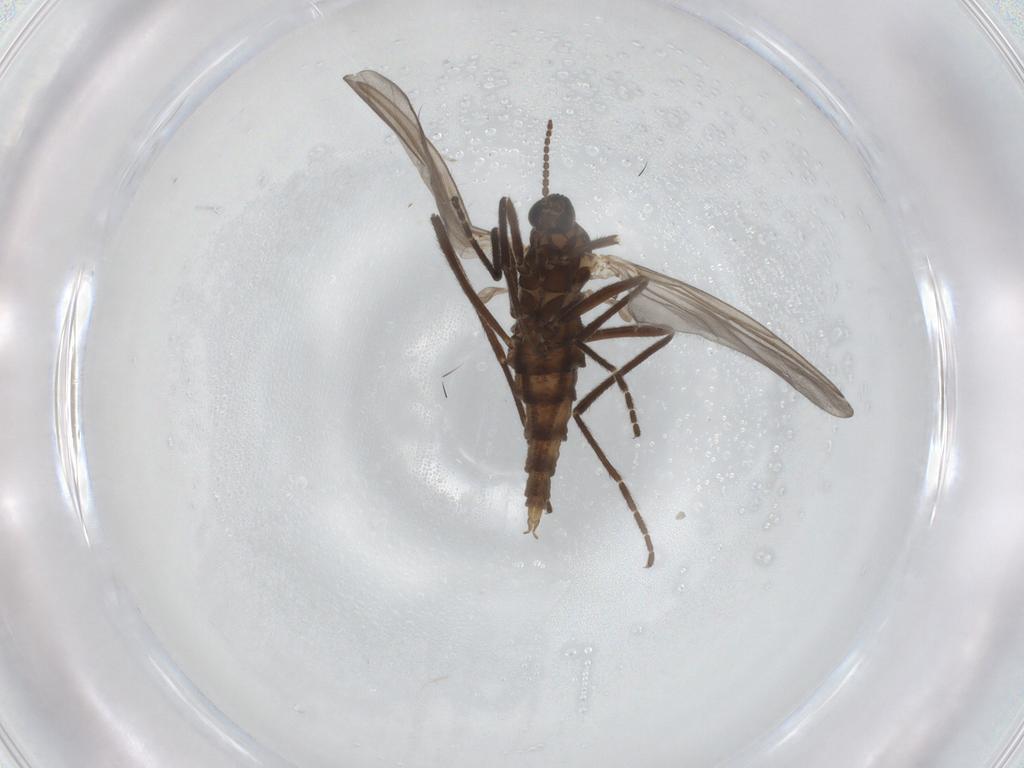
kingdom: Animalia
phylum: Arthropoda
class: Insecta
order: Diptera
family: Cecidomyiidae
